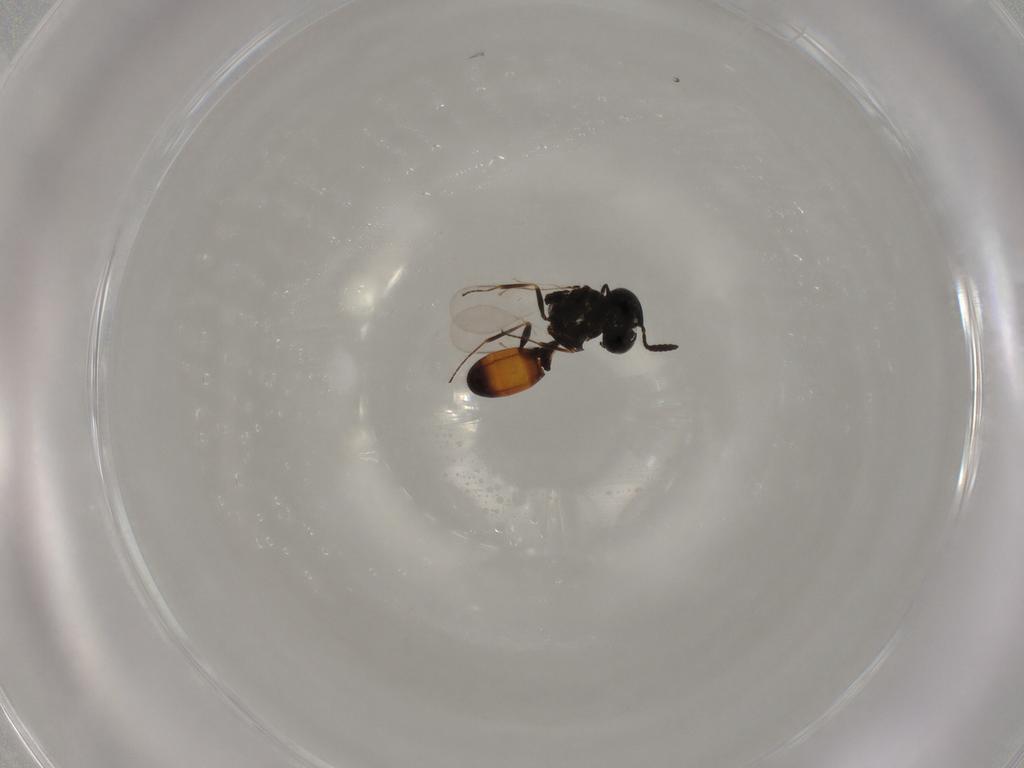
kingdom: Animalia
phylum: Arthropoda
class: Insecta
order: Hymenoptera
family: Scelionidae
